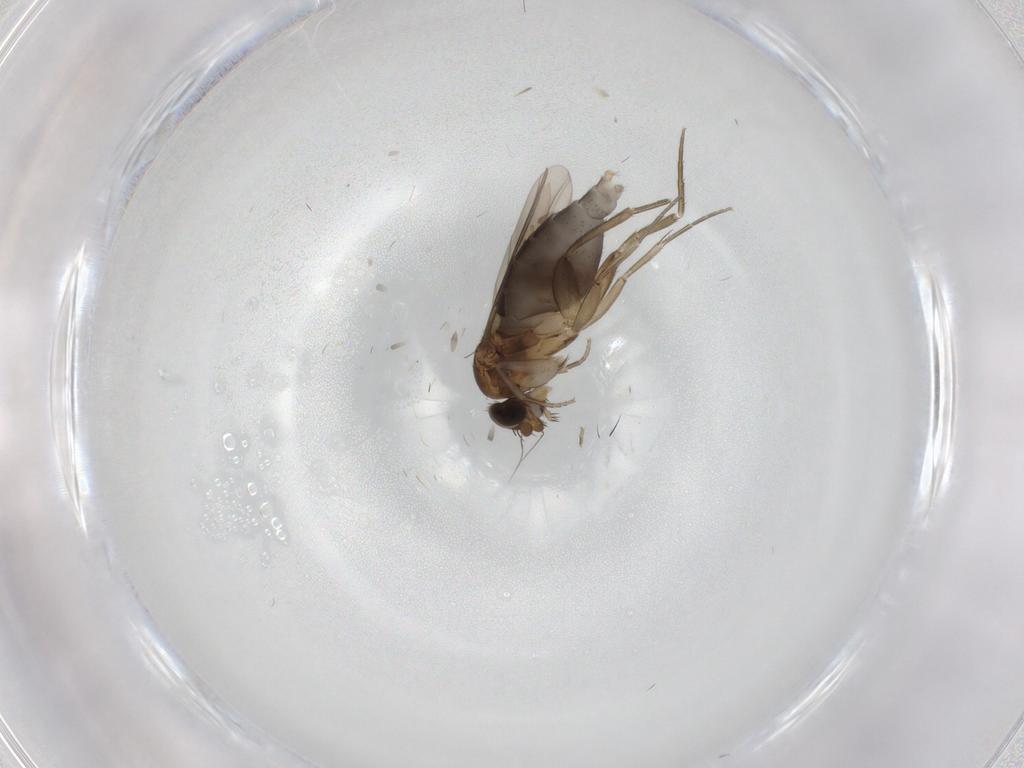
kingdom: Animalia
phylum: Arthropoda
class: Insecta
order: Diptera
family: Phoridae
